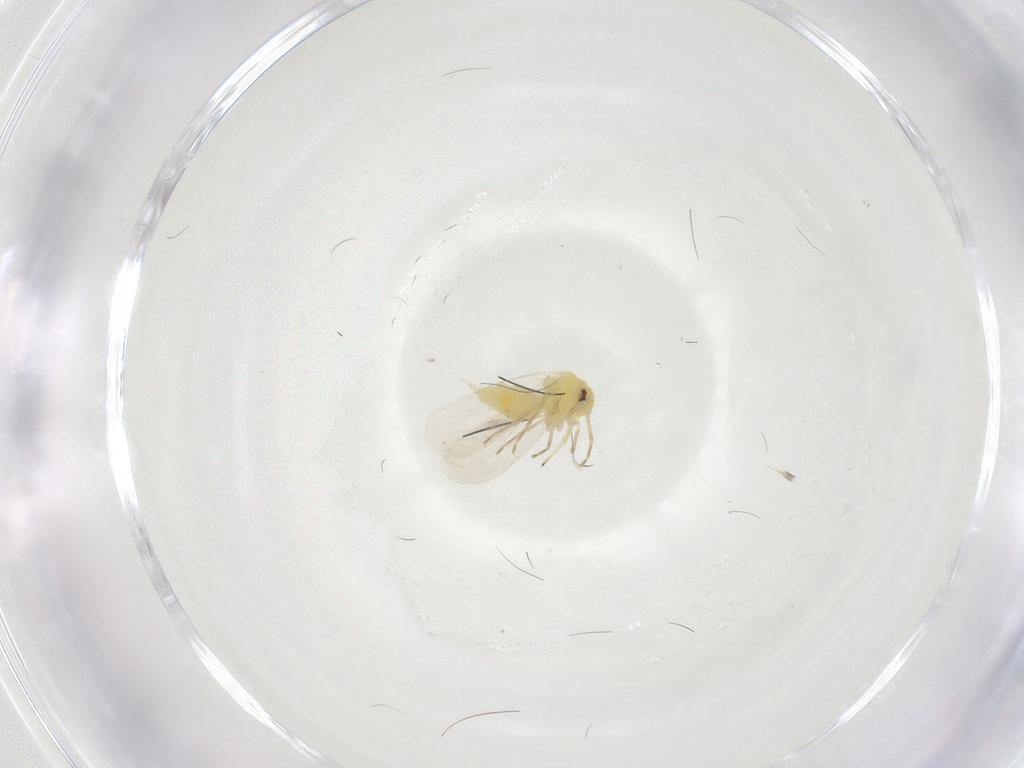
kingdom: Animalia
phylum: Arthropoda
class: Insecta
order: Hemiptera
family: Aleyrodidae
